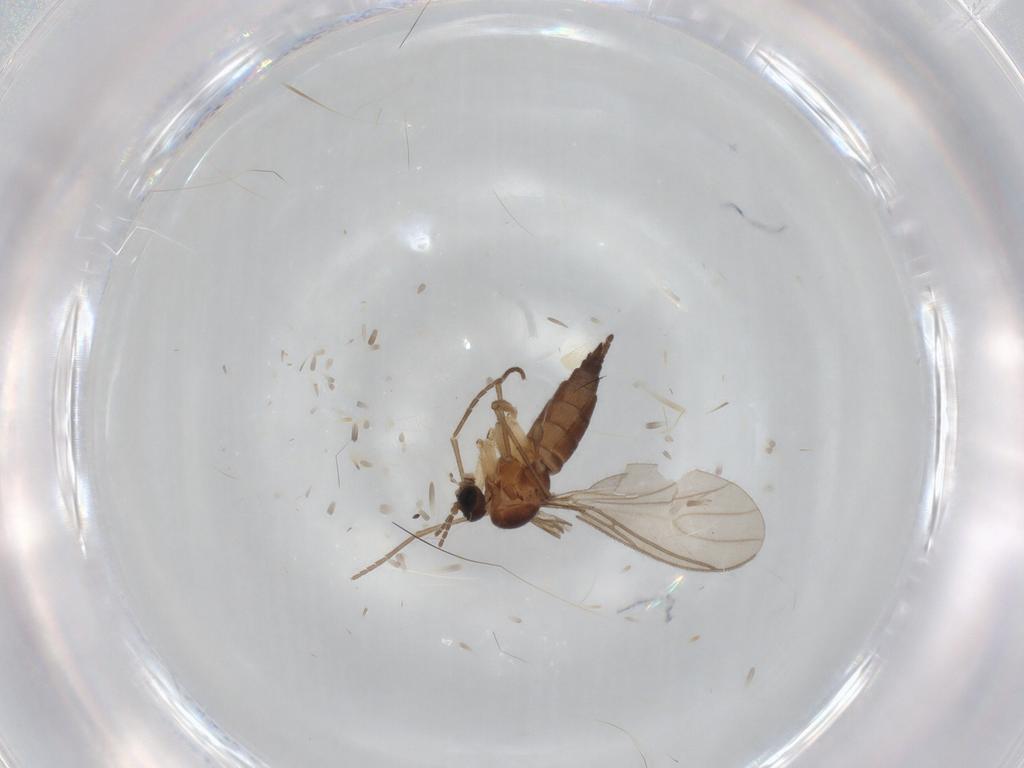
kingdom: Animalia
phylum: Arthropoda
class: Insecta
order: Diptera
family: Sciaridae
